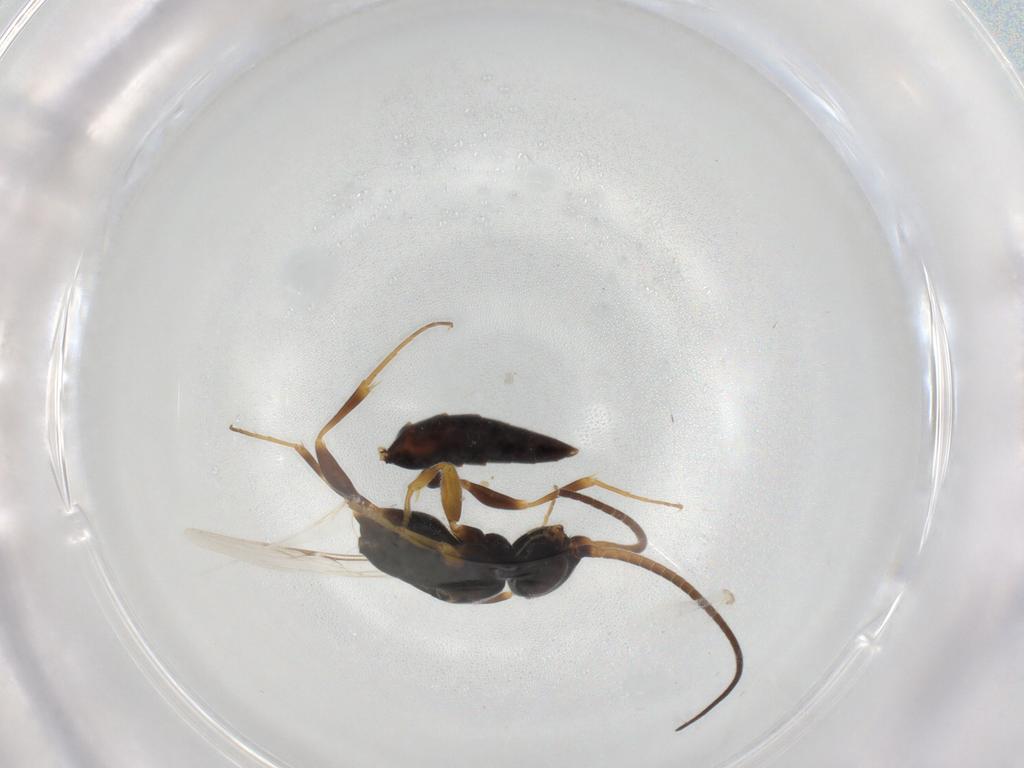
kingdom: Animalia
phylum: Arthropoda
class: Insecta
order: Hymenoptera
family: Sclerogibbidae
